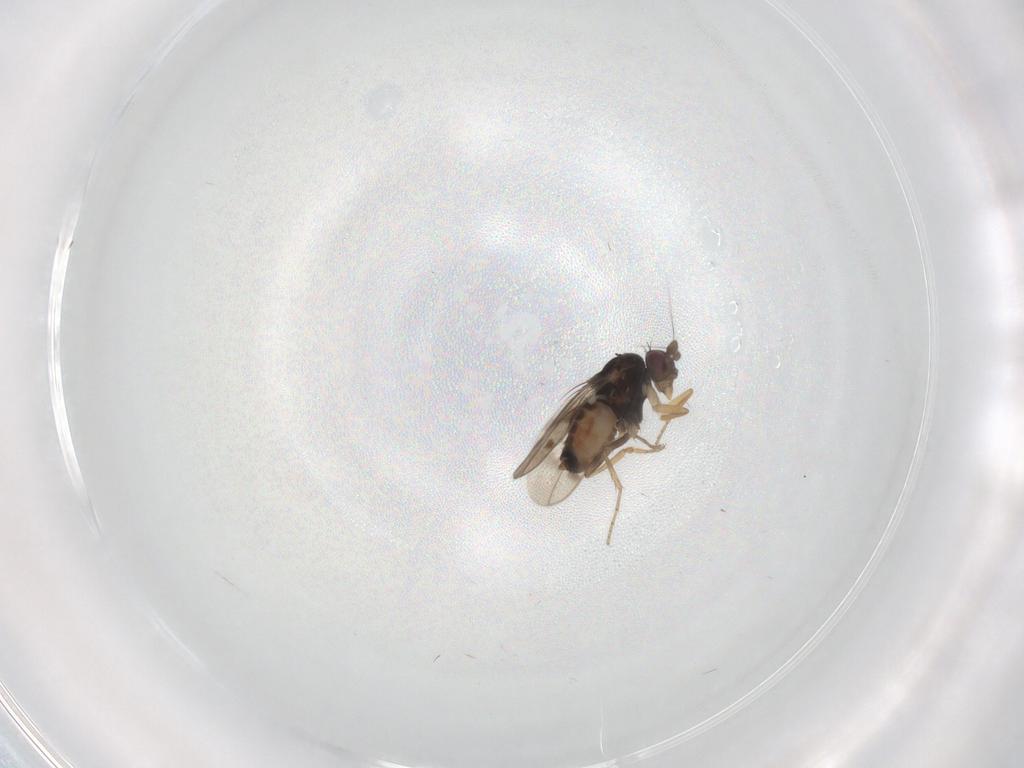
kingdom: Animalia
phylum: Arthropoda
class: Insecta
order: Diptera
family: Sphaeroceridae
